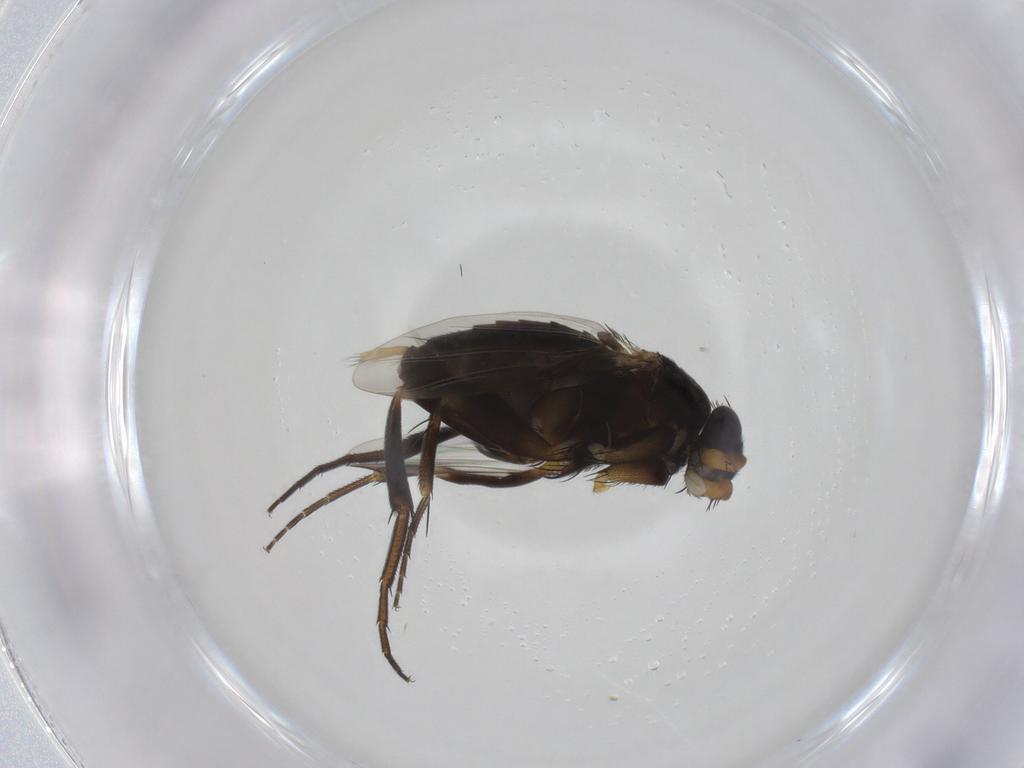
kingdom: Animalia
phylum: Arthropoda
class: Insecta
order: Diptera
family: Phoridae
